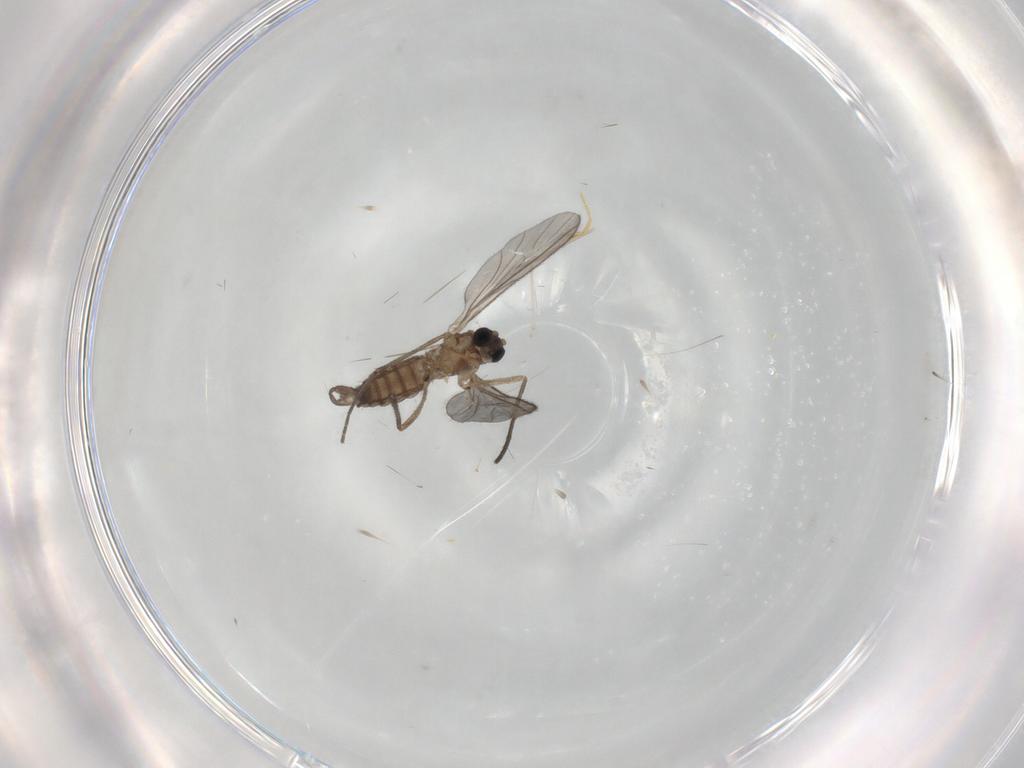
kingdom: Animalia
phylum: Arthropoda
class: Insecta
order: Diptera
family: Sciaridae
